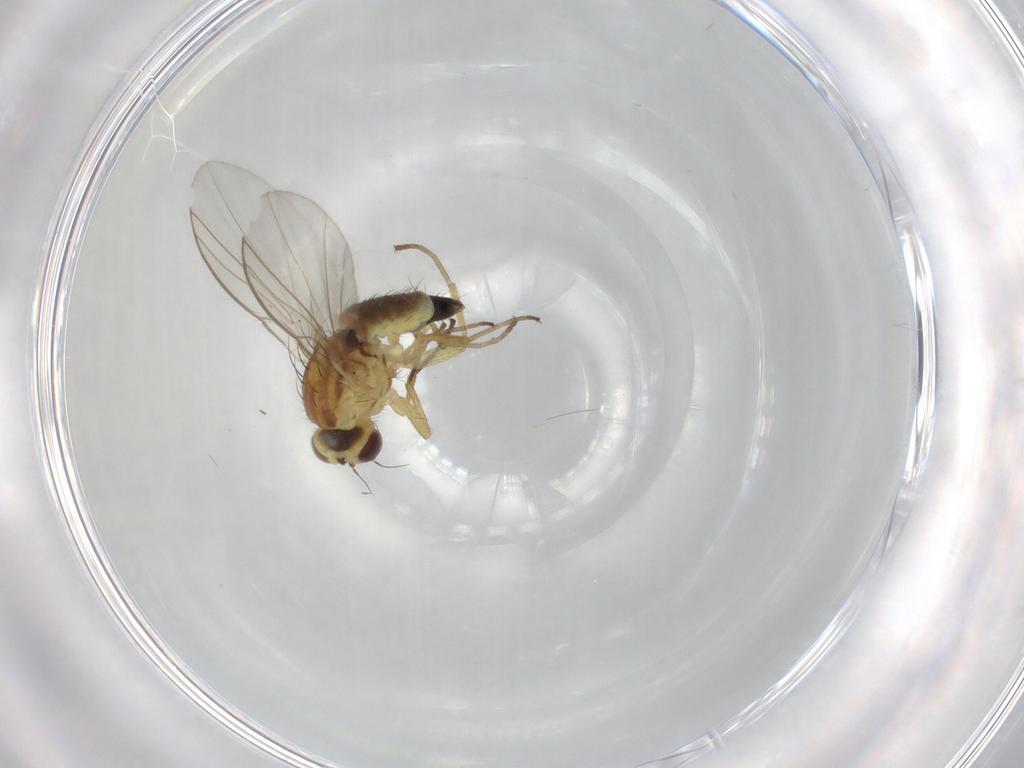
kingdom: Animalia
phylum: Arthropoda
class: Insecta
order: Diptera
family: Agromyzidae
